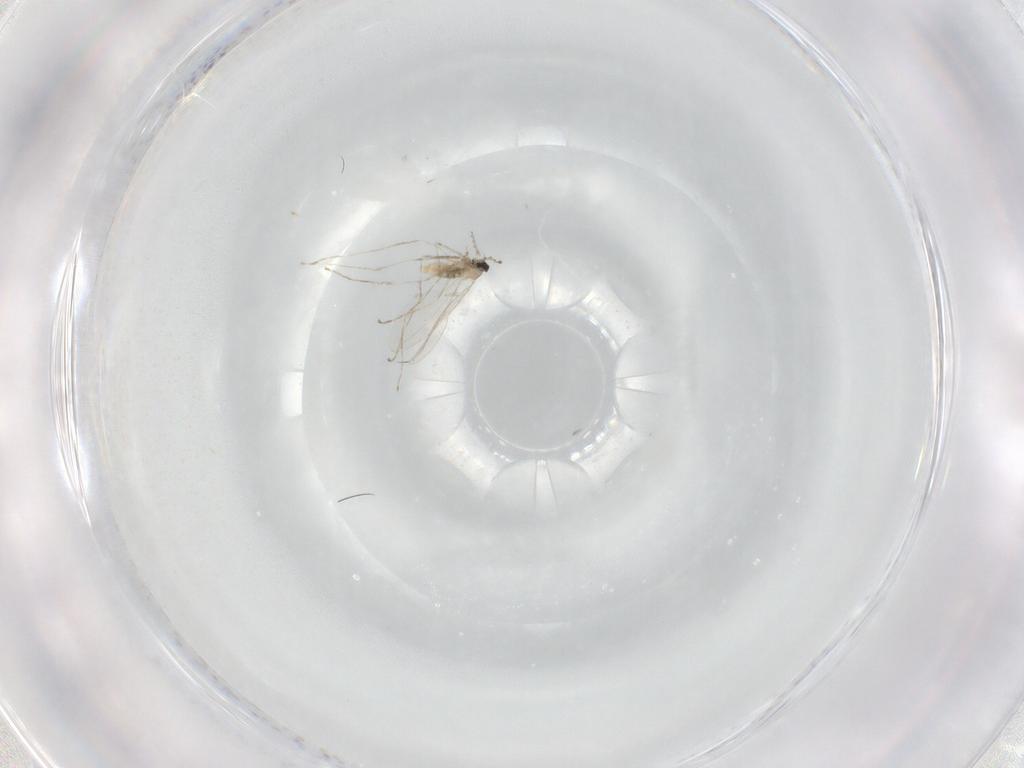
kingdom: Animalia
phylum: Arthropoda
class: Insecta
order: Diptera
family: Cecidomyiidae
